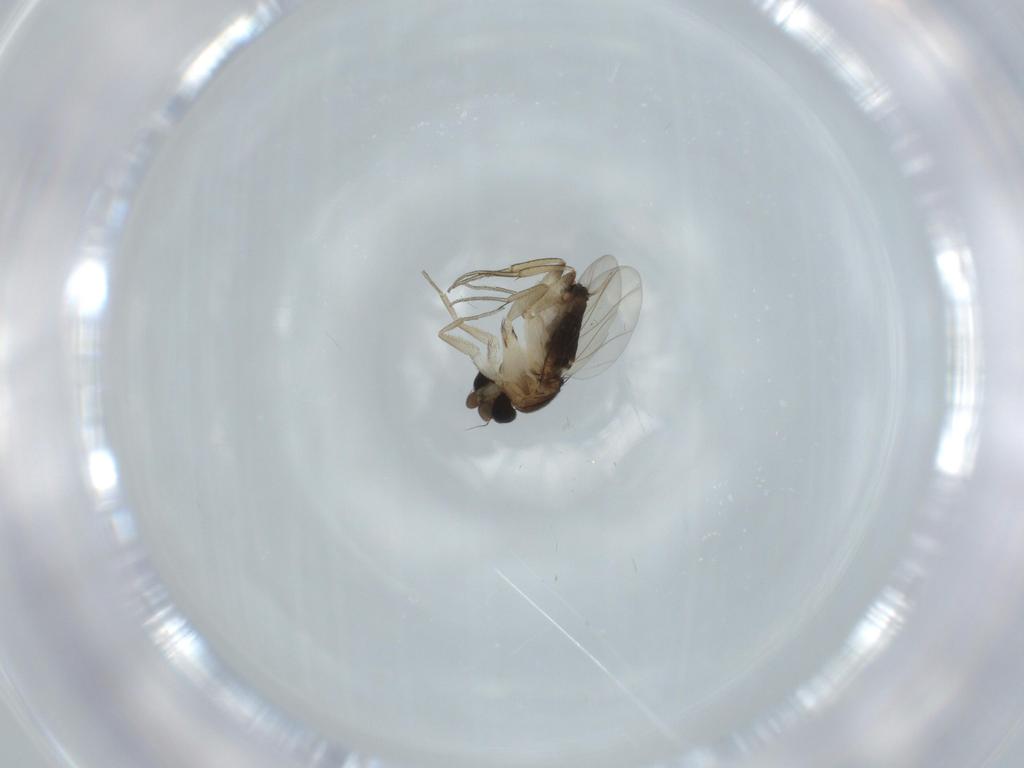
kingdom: Animalia
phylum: Arthropoda
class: Insecta
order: Diptera
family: Phoridae
